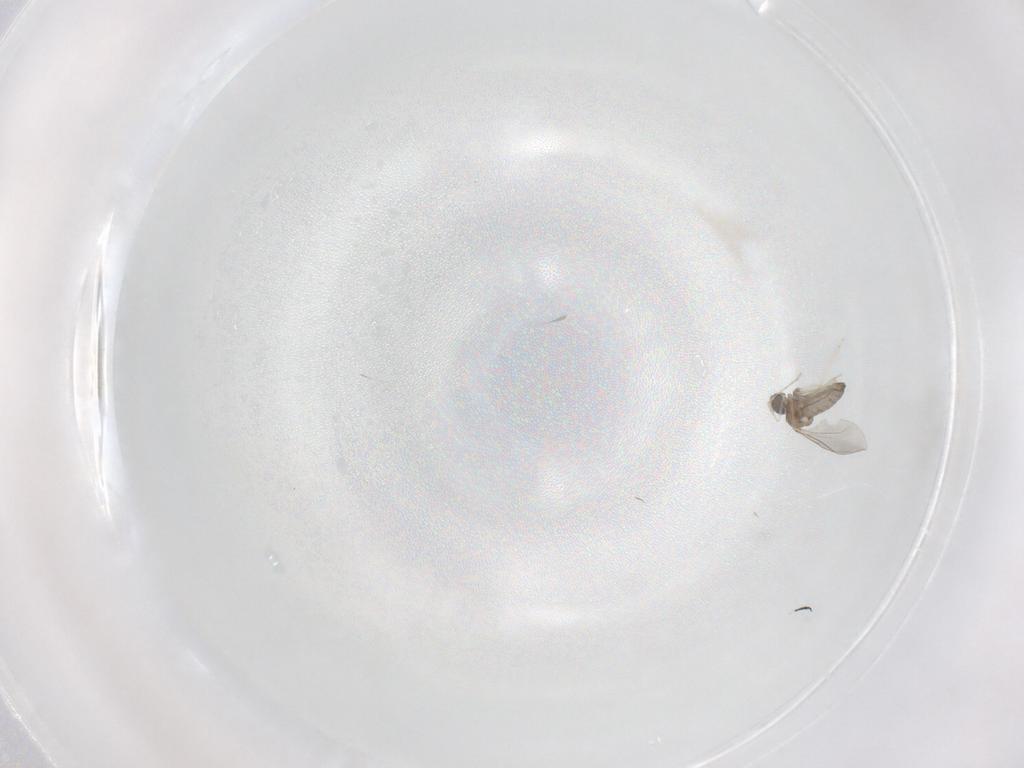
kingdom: Animalia
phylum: Arthropoda
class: Insecta
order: Diptera
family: Cecidomyiidae
